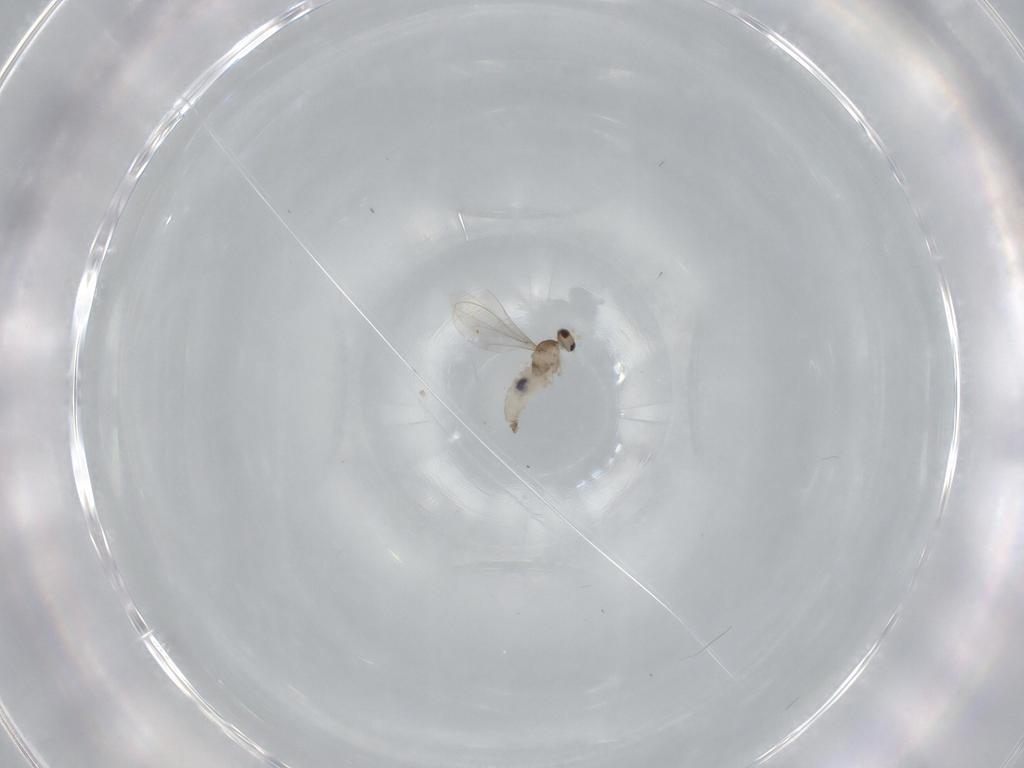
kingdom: Animalia
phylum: Arthropoda
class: Insecta
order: Diptera
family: Cecidomyiidae
